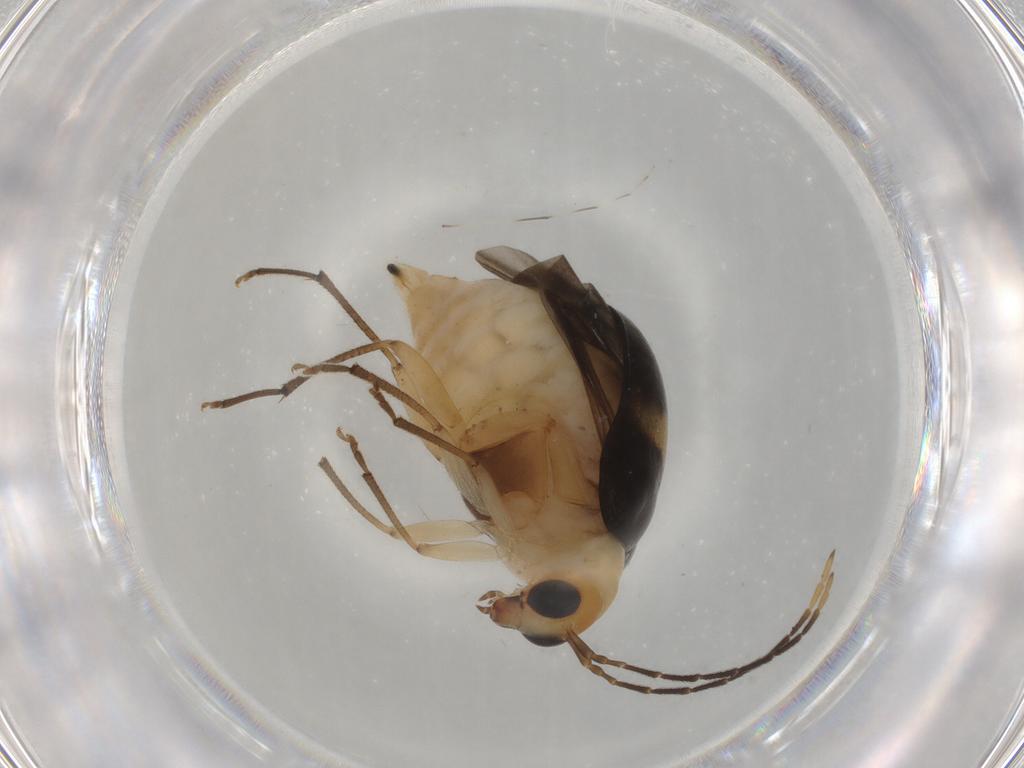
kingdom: Animalia
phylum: Arthropoda
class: Insecta
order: Coleoptera
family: Chrysomelidae
